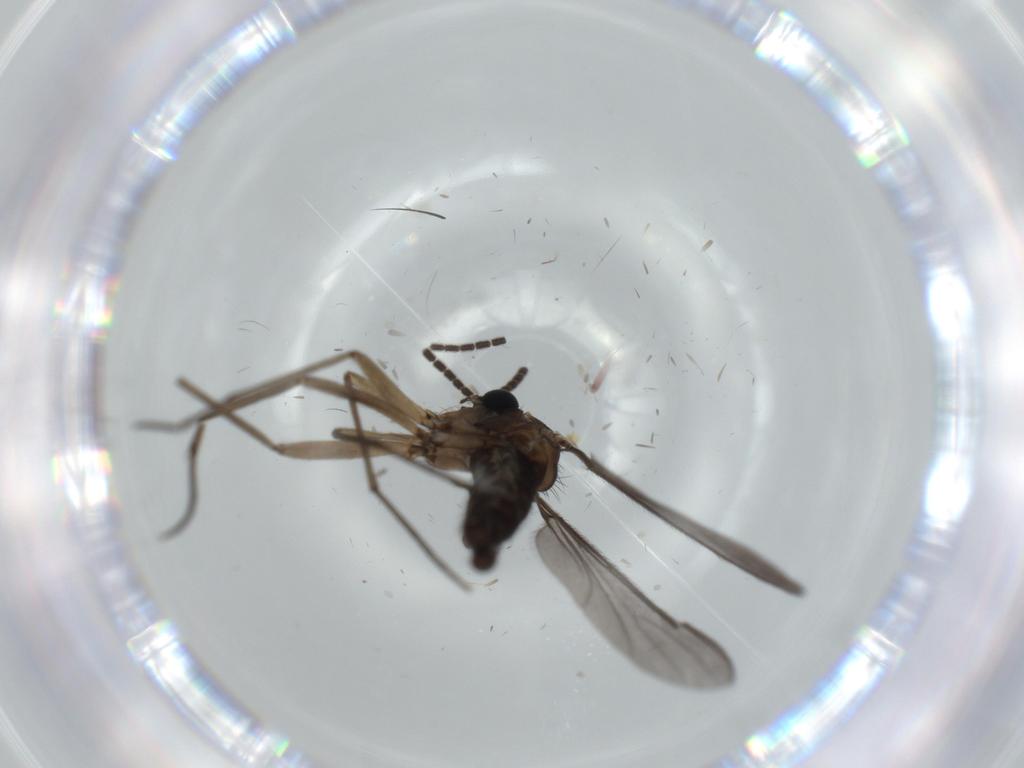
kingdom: Animalia
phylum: Arthropoda
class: Insecta
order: Diptera
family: Sciaridae
